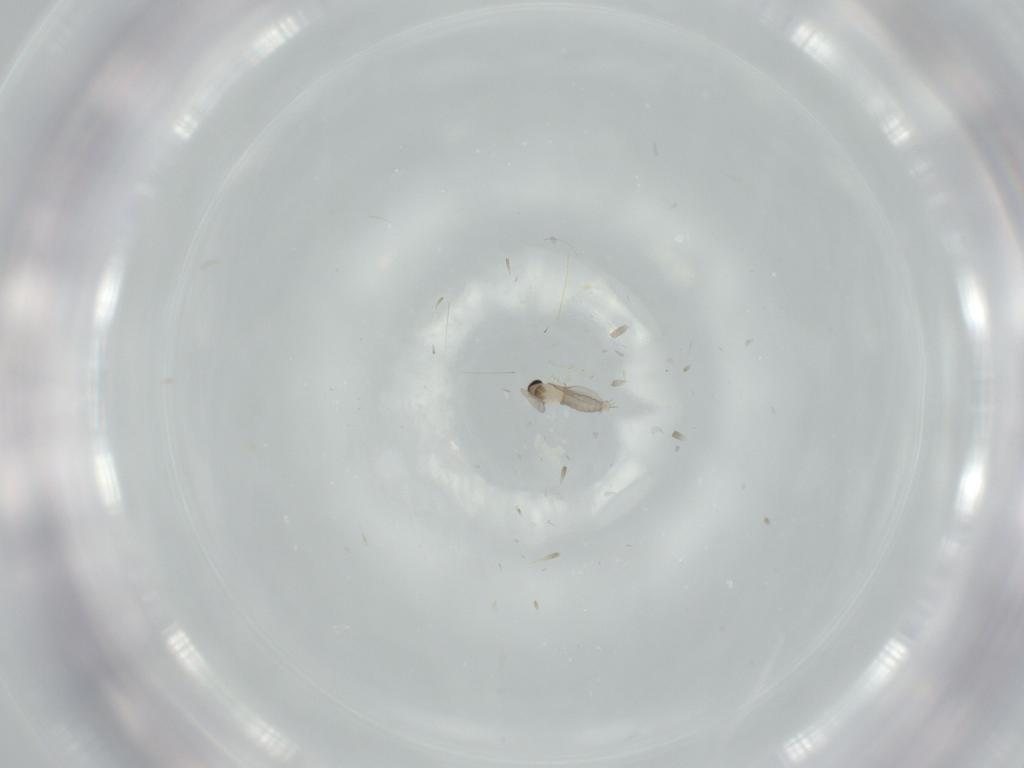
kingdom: Animalia
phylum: Arthropoda
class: Insecta
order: Diptera
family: Dolichopodidae
